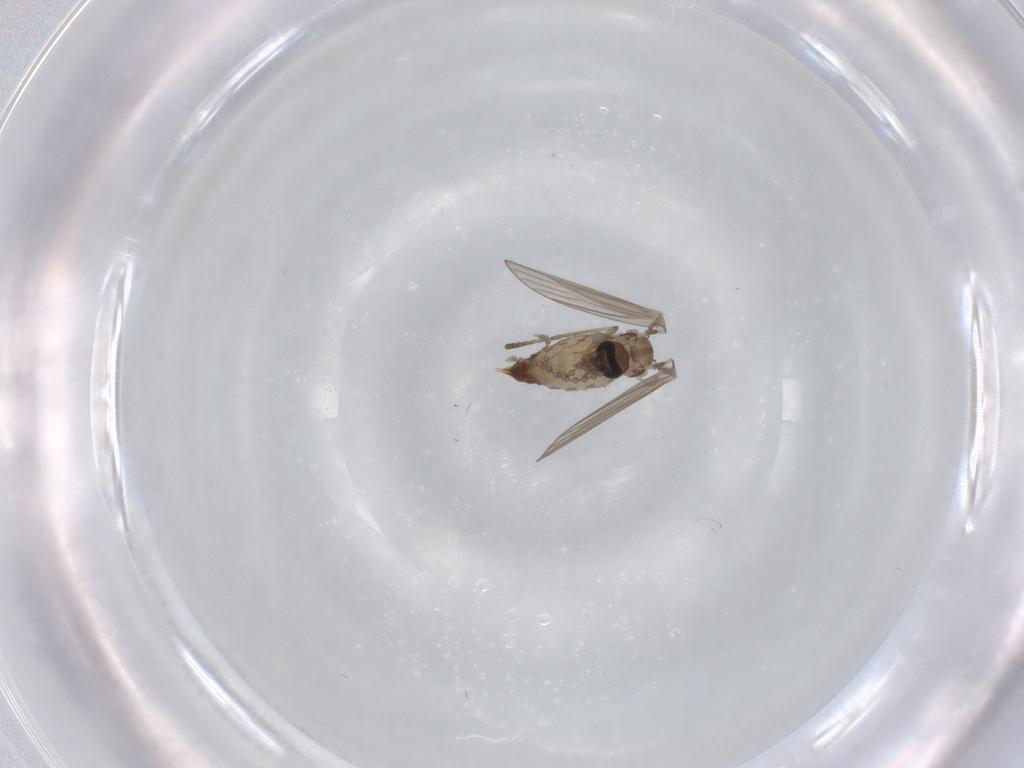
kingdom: Animalia
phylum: Arthropoda
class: Insecta
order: Diptera
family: Psychodidae
